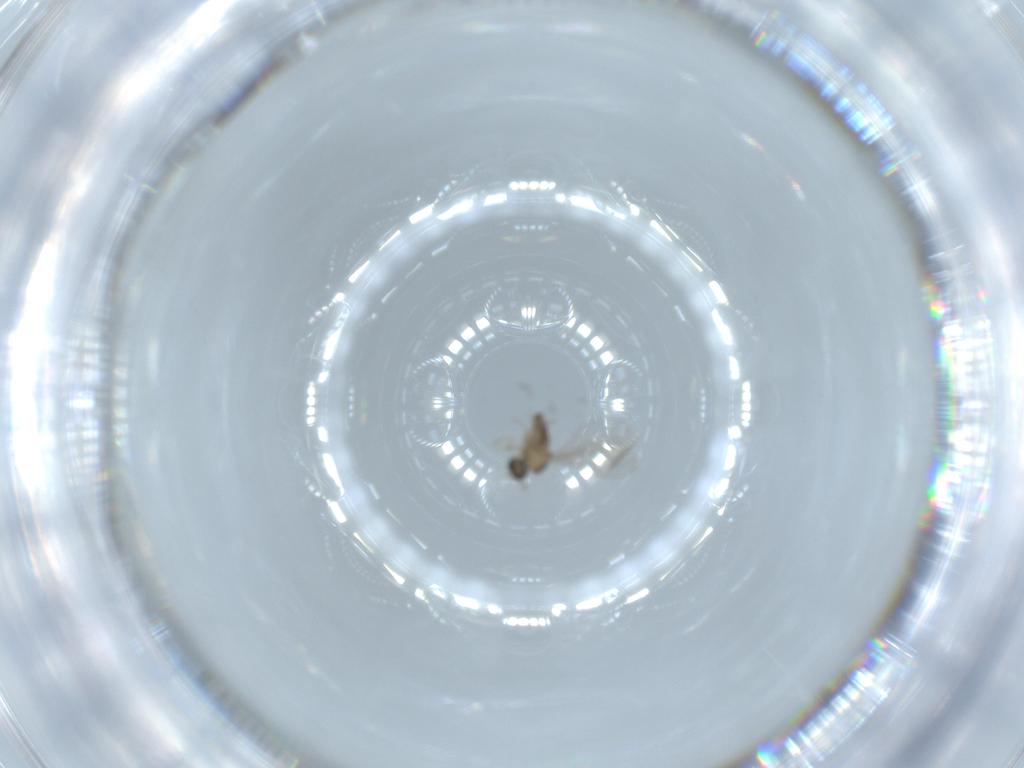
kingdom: Animalia
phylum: Arthropoda
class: Insecta
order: Diptera
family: Cecidomyiidae
